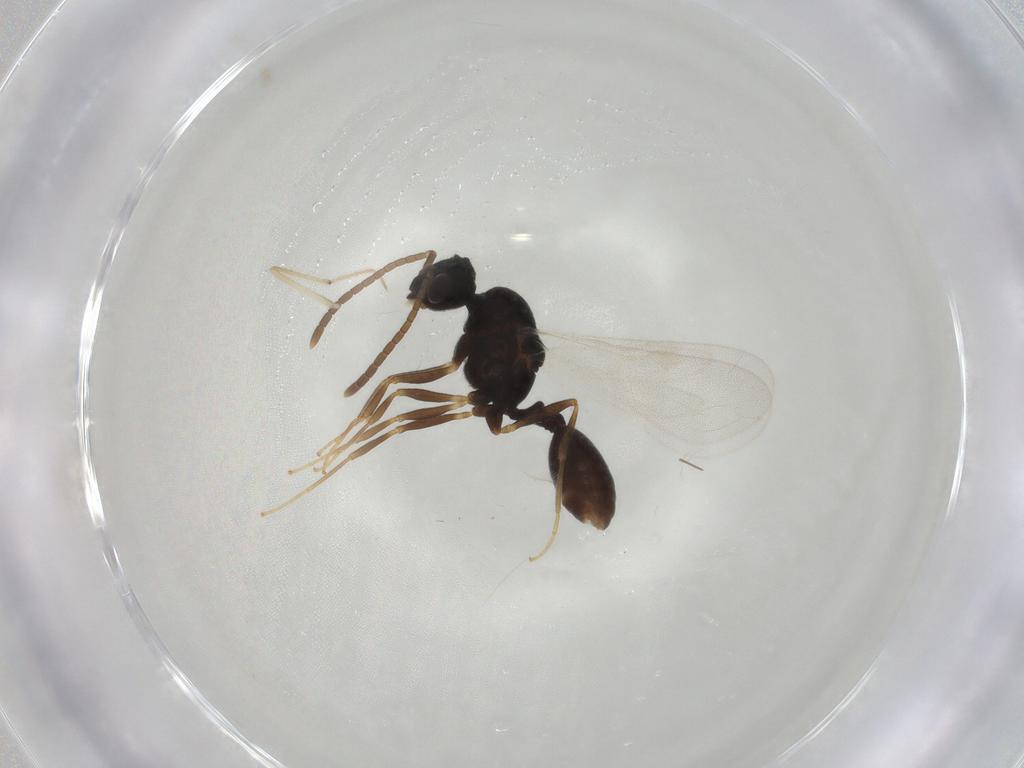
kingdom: Animalia
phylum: Arthropoda
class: Insecta
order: Hymenoptera
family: Formicidae
